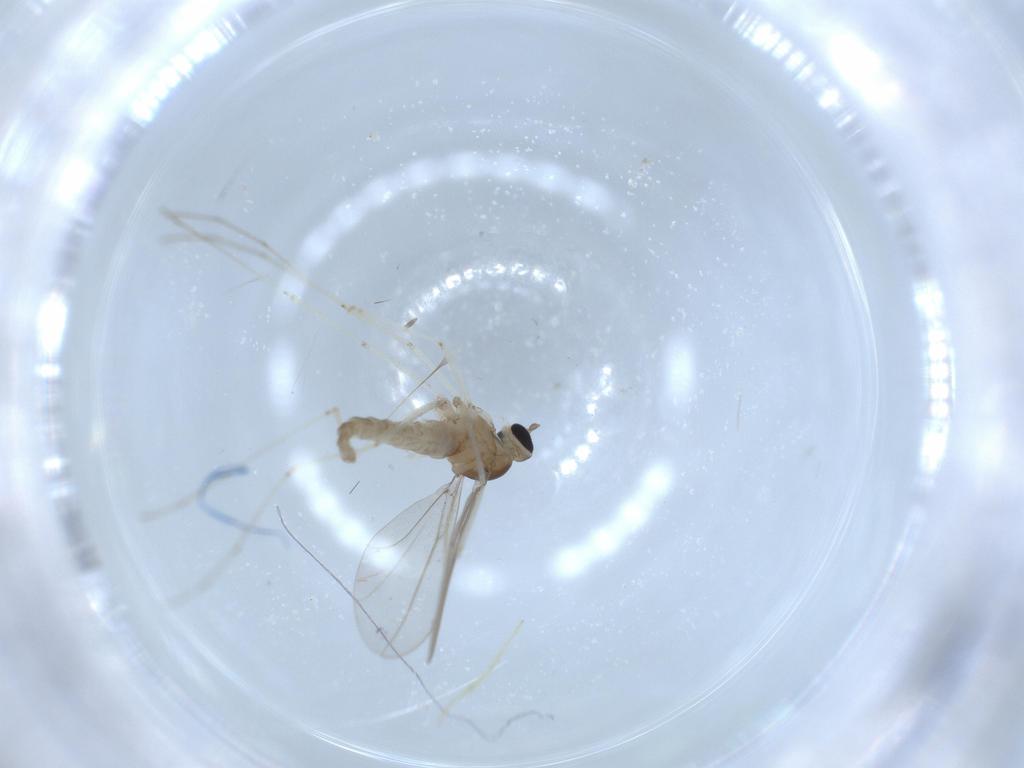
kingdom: Animalia
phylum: Arthropoda
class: Insecta
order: Diptera
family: Cecidomyiidae
